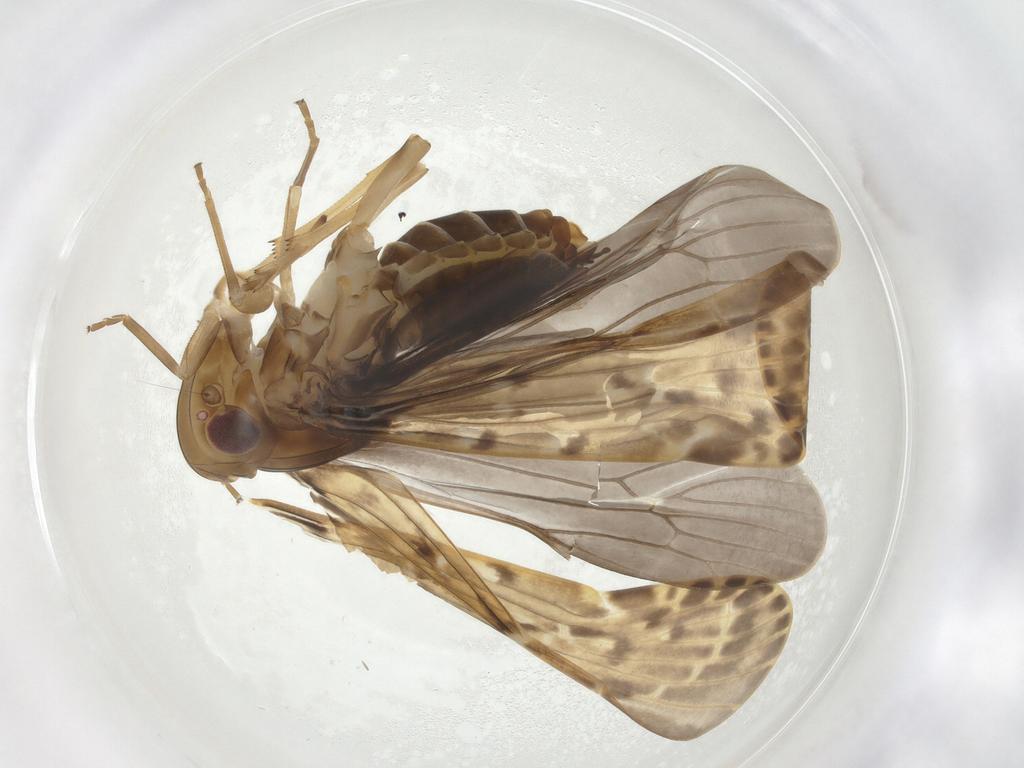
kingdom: Animalia
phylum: Arthropoda
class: Insecta
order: Hemiptera
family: Achilidae
